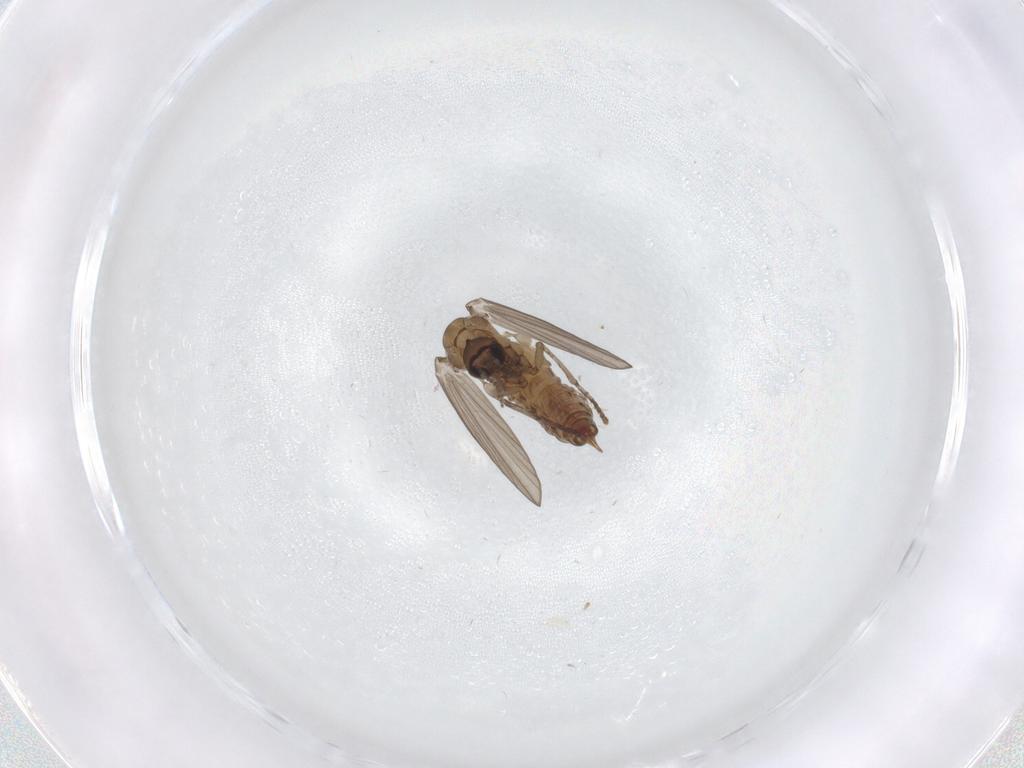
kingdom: Animalia
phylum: Arthropoda
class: Insecta
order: Diptera
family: Psychodidae
